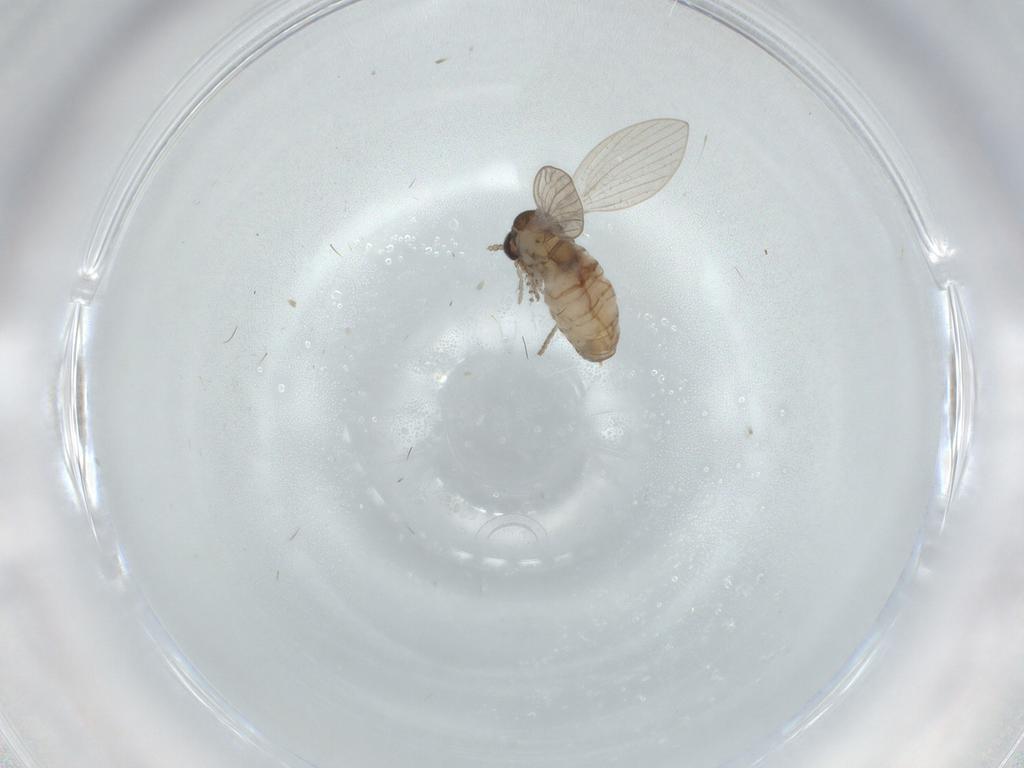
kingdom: Animalia
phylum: Arthropoda
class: Insecta
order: Diptera
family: Psychodidae
